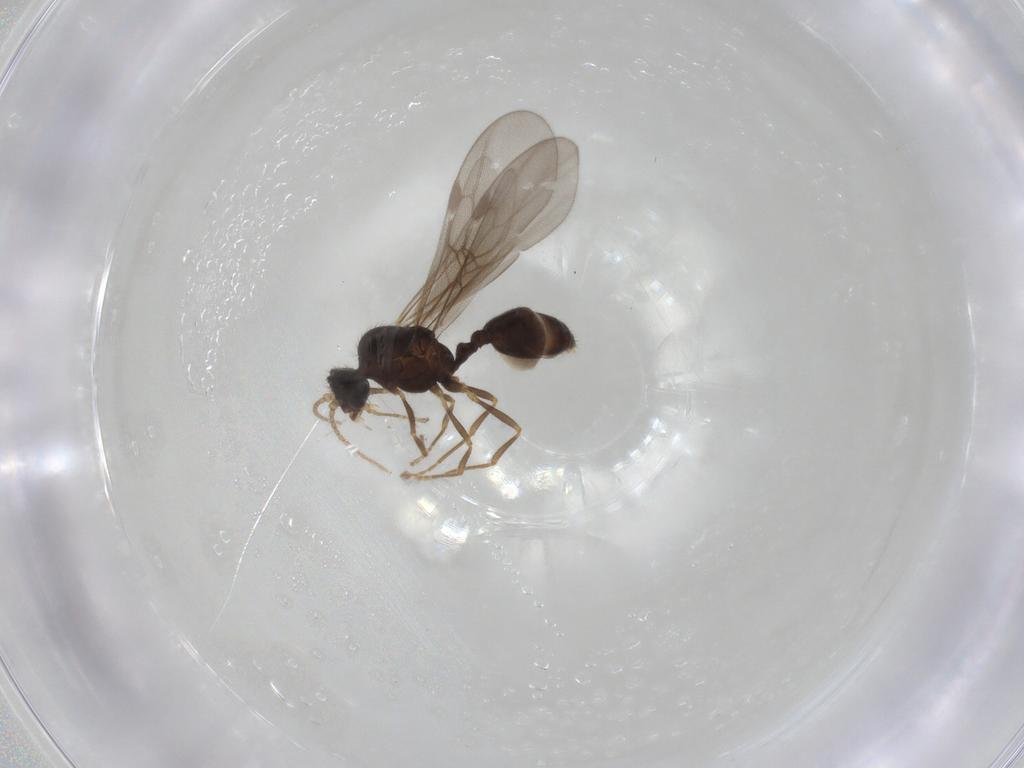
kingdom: Animalia
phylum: Arthropoda
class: Insecta
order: Hymenoptera
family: Formicidae
